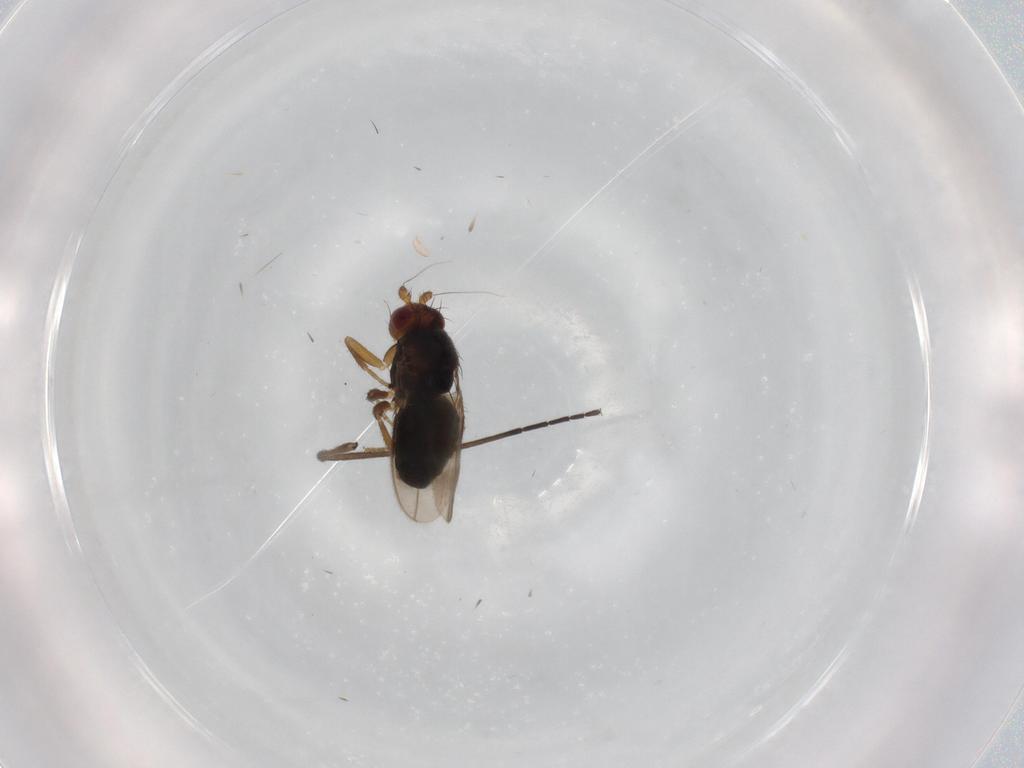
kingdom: Animalia
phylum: Arthropoda
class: Insecta
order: Diptera
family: Sphaeroceridae
